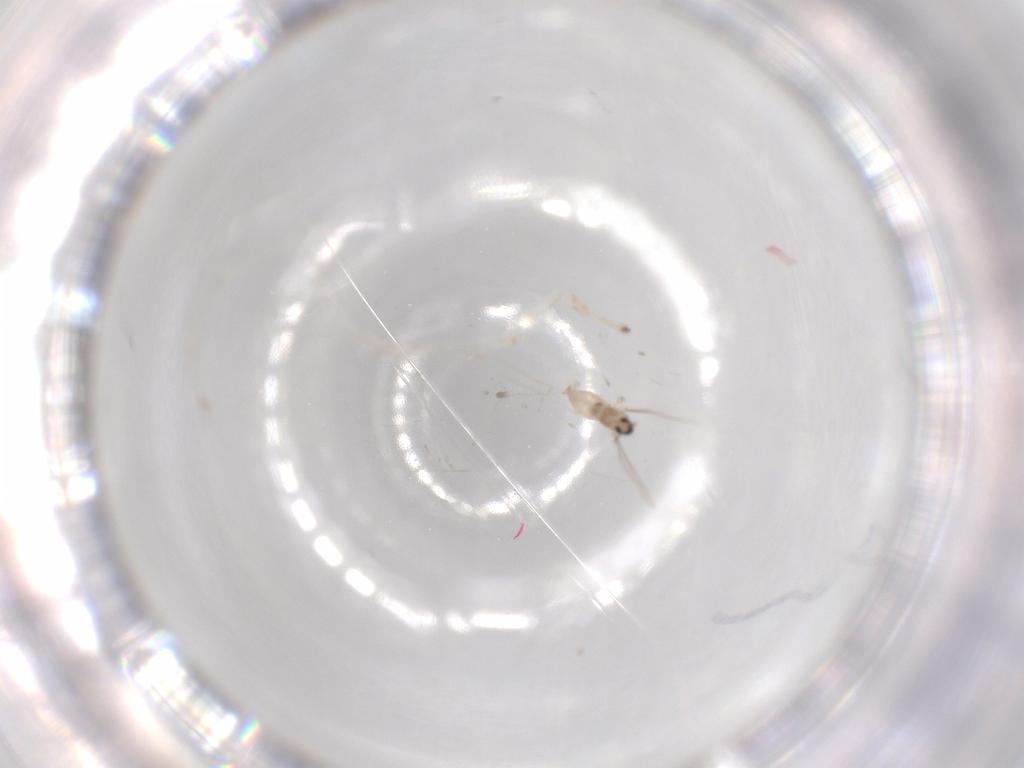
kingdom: Animalia
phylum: Arthropoda
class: Insecta
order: Diptera
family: Cecidomyiidae
